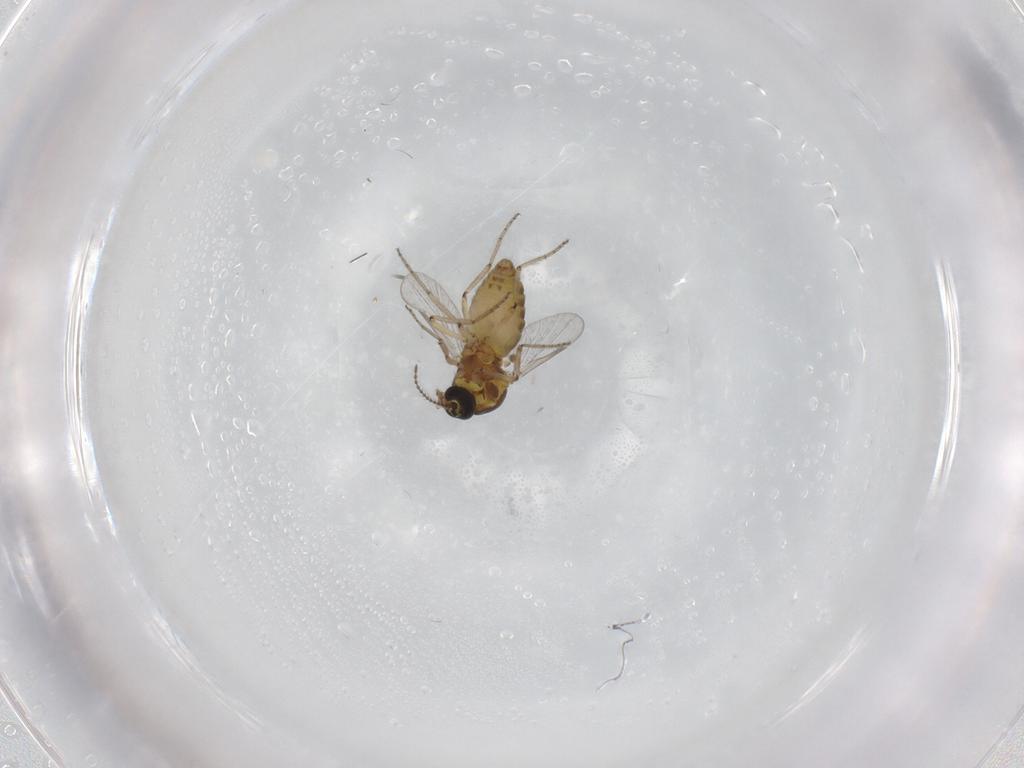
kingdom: Animalia
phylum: Arthropoda
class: Insecta
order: Diptera
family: Ceratopogonidae
